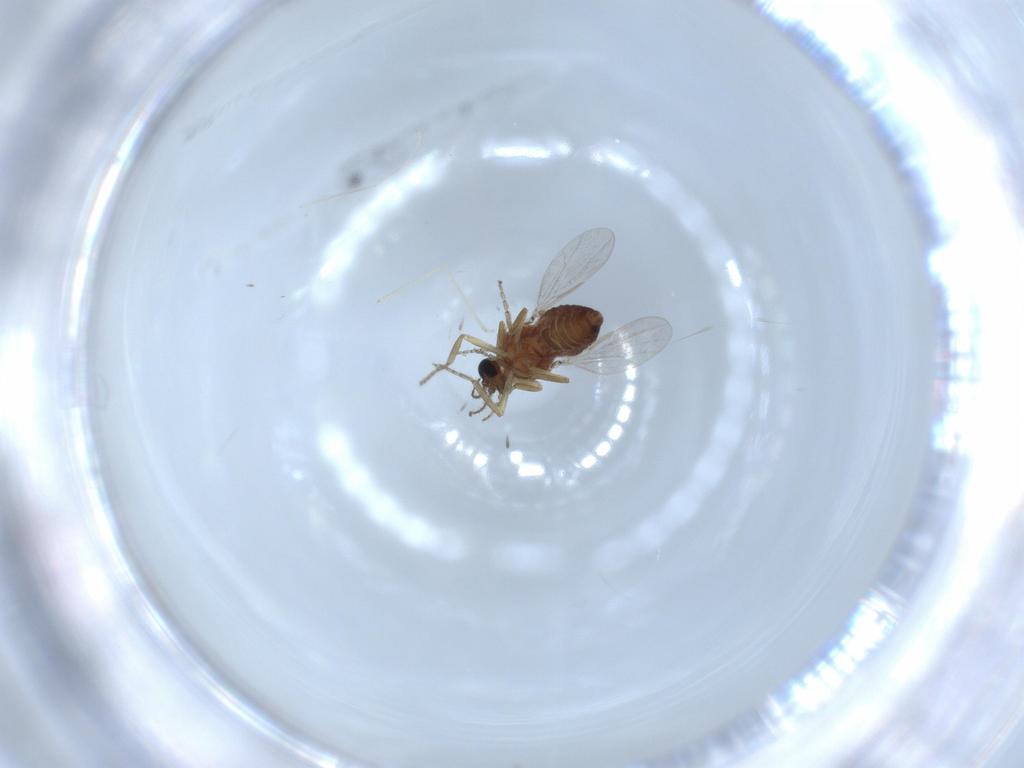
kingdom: Animalia
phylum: Arthropoda
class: Insecta
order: Diptera
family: Ceratopogonidae
